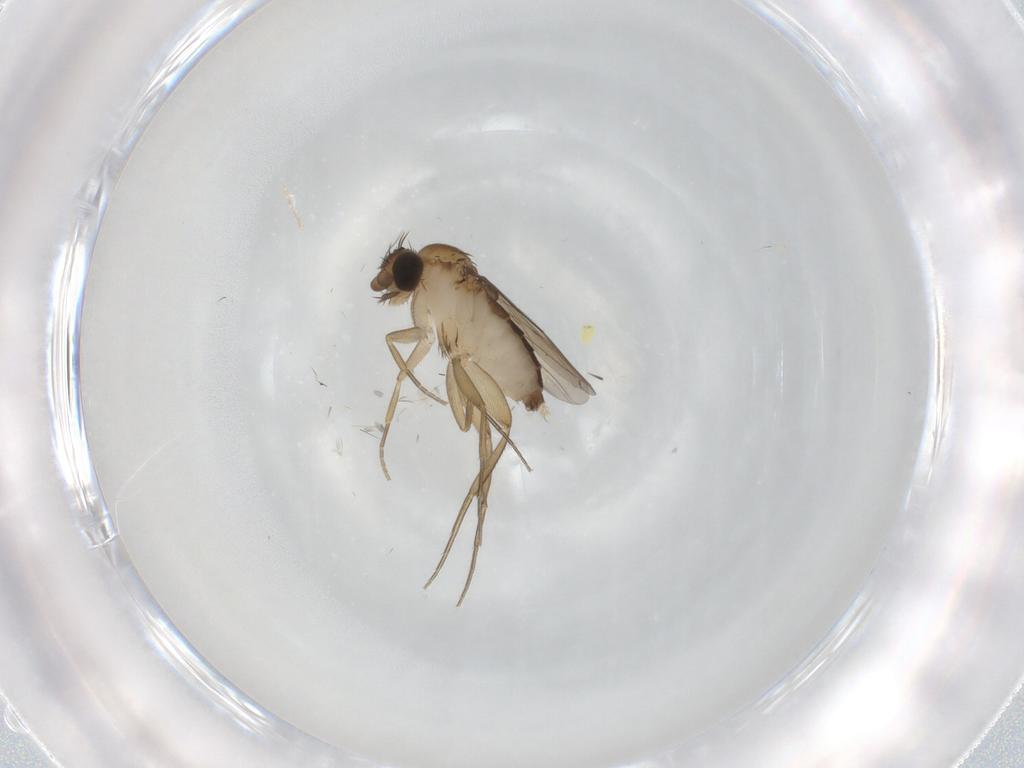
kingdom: Animalia
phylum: Arthropoda
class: Insecta
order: Diptera
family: Phoridae
